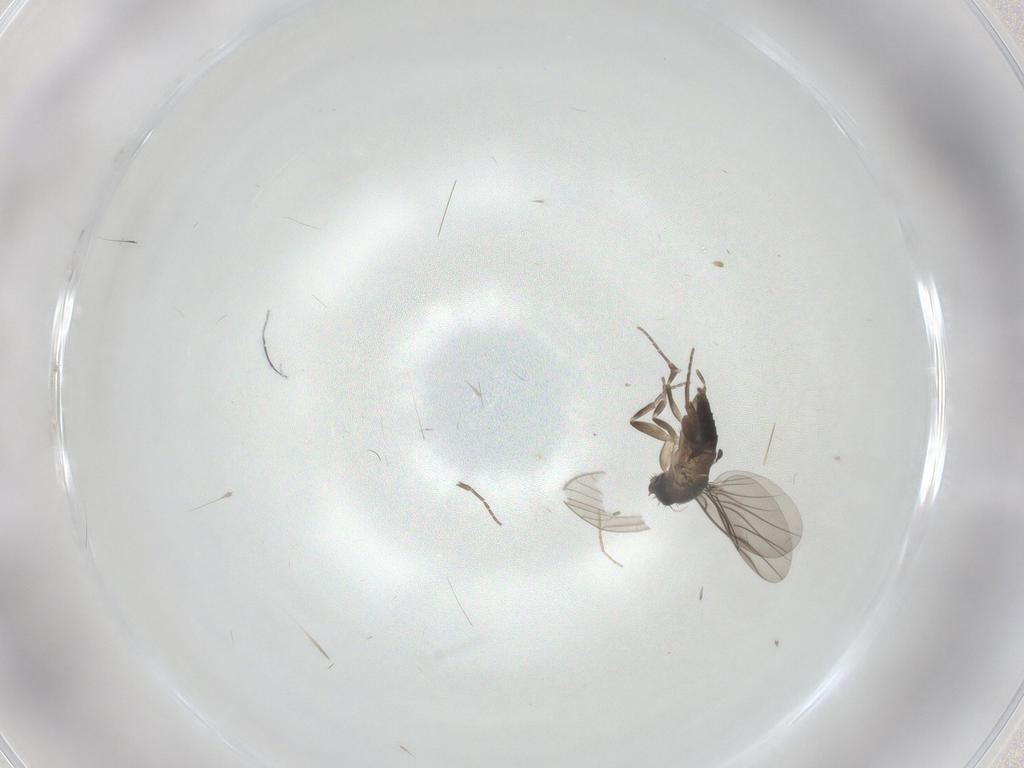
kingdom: Animalia
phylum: Arthropoda
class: Insecta
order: Diptera
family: Chironomidae
